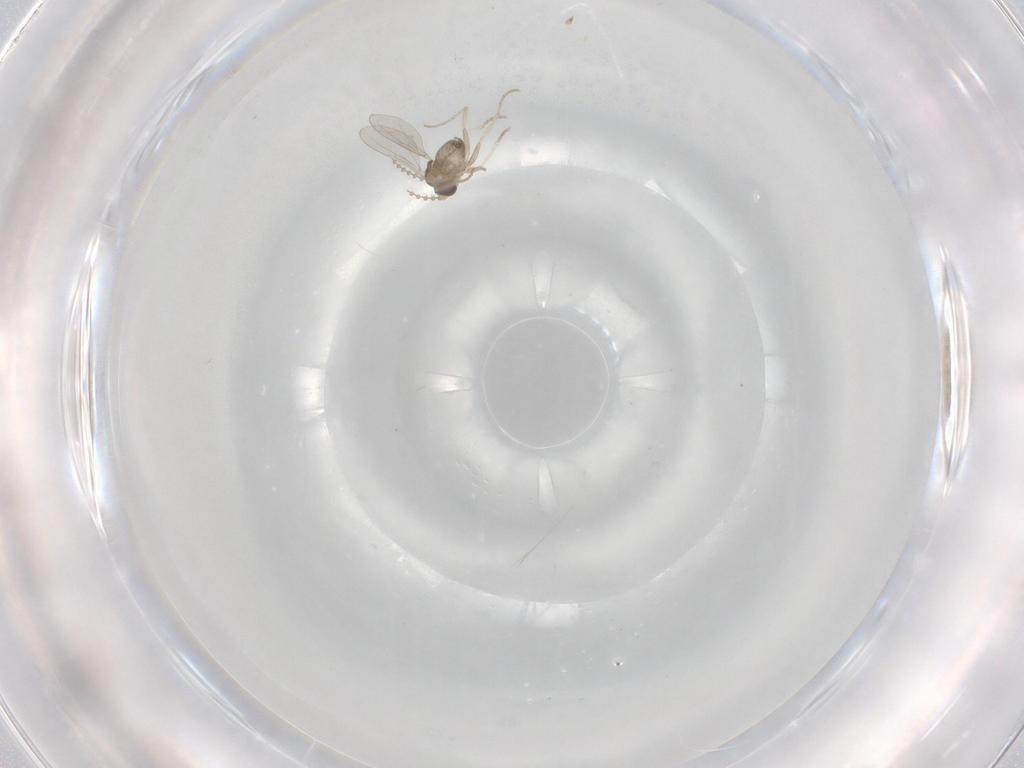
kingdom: Animalia
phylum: Arthropoda
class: Insecta
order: Diptera
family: Cecidomyiidae
